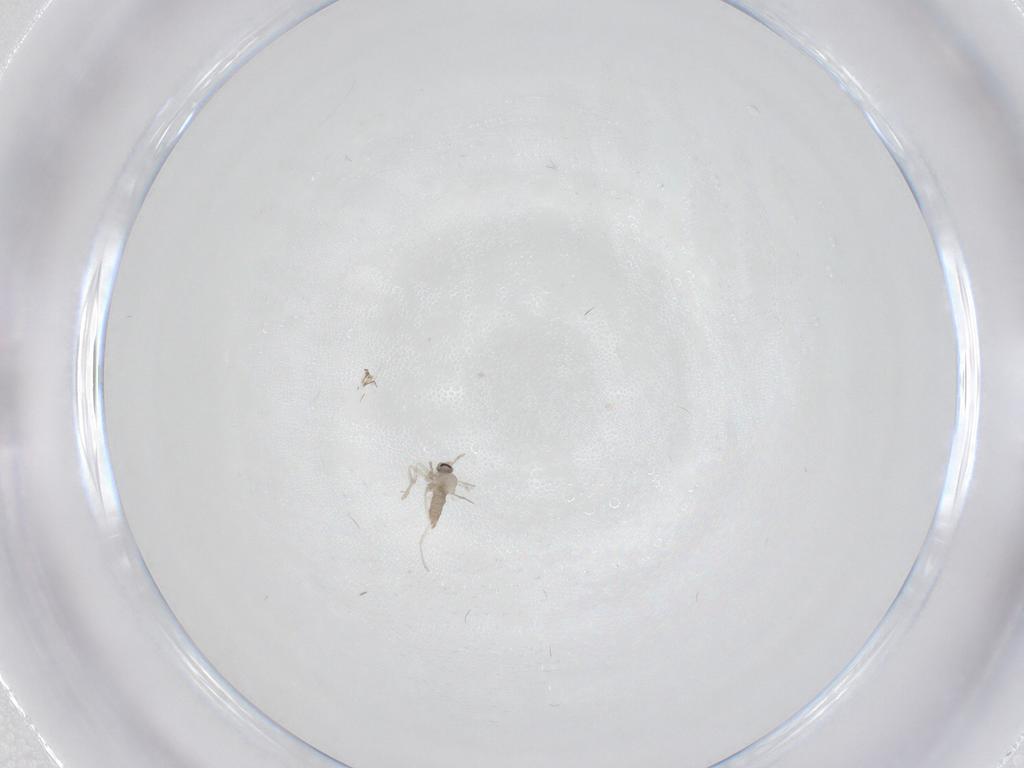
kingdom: Animalia
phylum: Arthropoda
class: Insecta
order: Diptera
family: Cecidomyiidae
